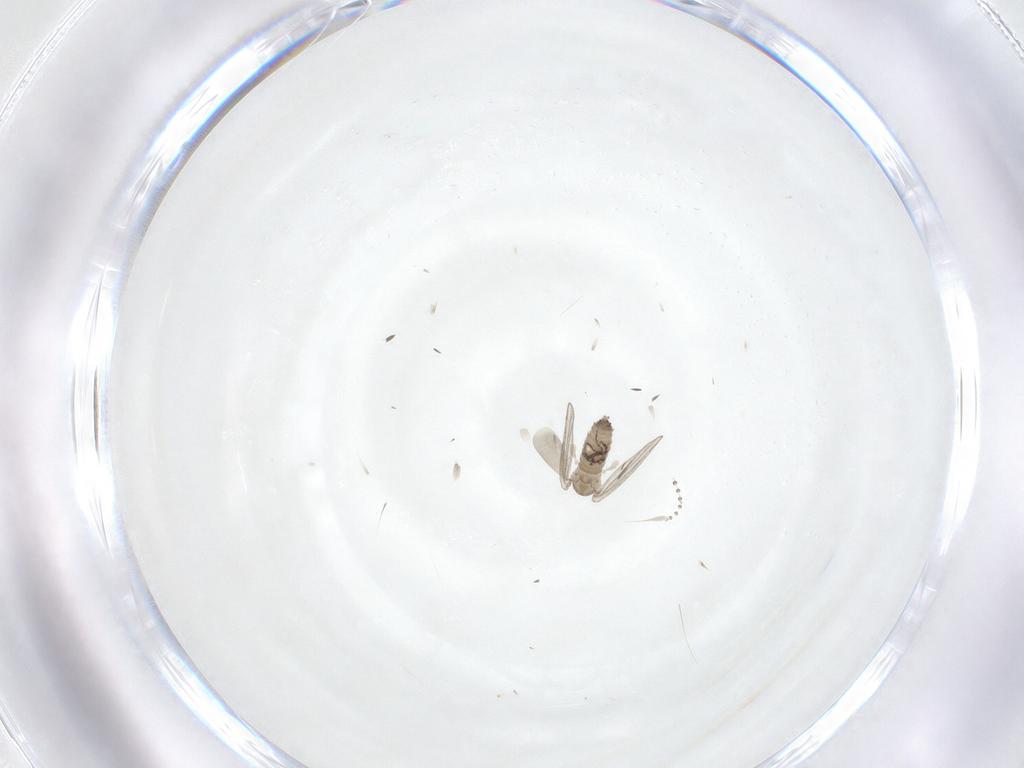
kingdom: Animalia
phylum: Arthropoda
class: Insecta
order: Diptera
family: Psychodidae
